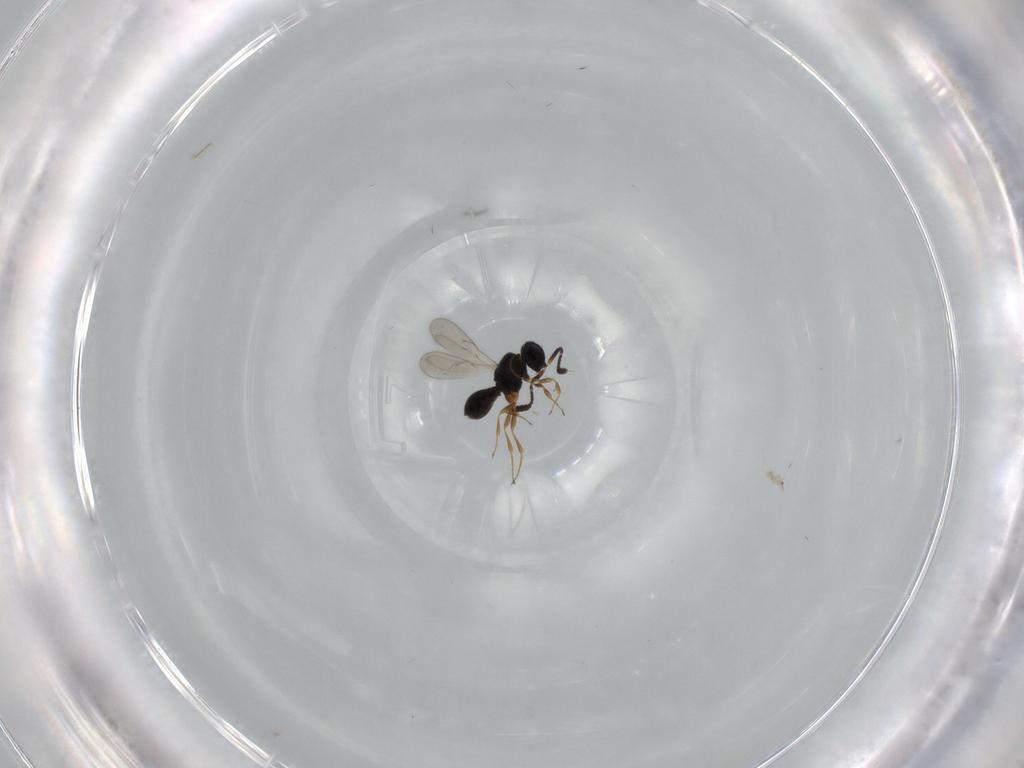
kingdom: Animalia
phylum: Arthropoda
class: Insecta
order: Hymenoptera
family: Scelionidae
